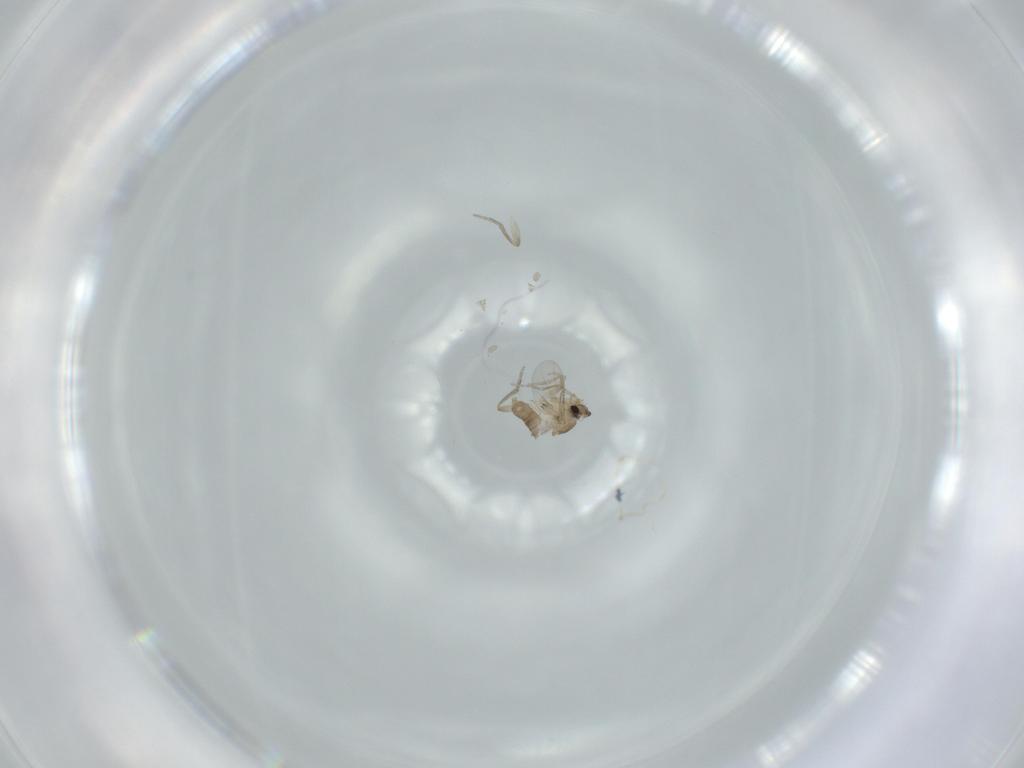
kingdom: Animalia
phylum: Arthropoda
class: Insecta
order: Diptera
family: Phoridae
